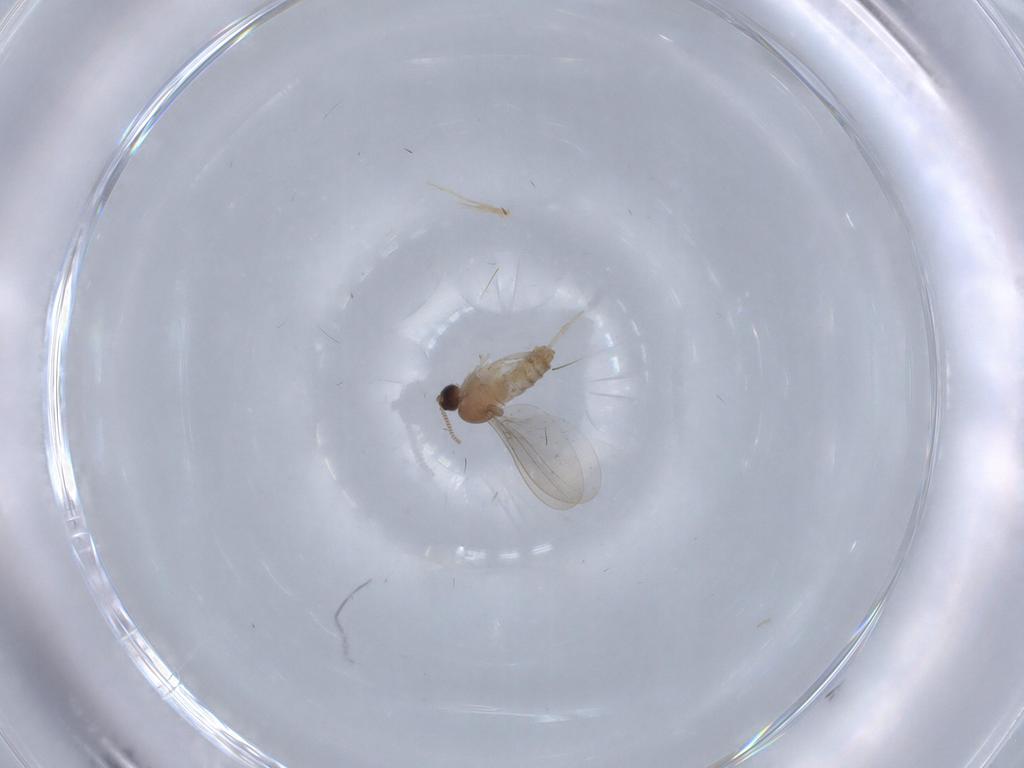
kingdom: Animalia
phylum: Arthropoda
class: Insecta
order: Diptera
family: Cecidomyiidae
